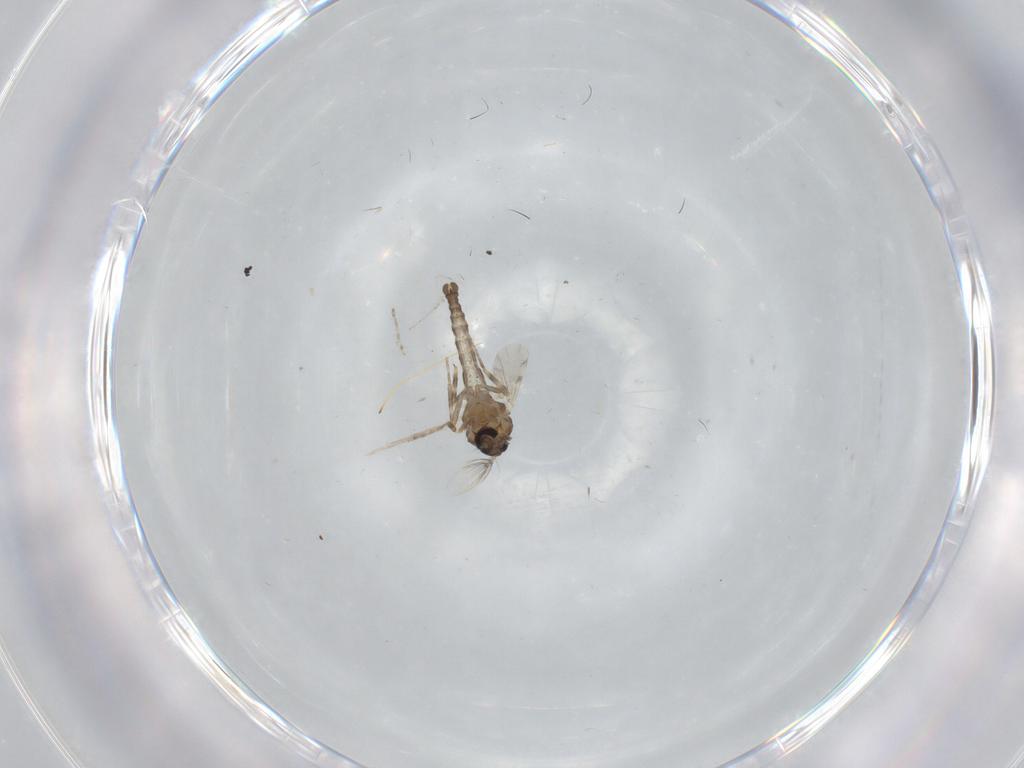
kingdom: Animalia
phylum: Arthropoda
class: Insecta
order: Diptera
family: Ceratopogonidae
